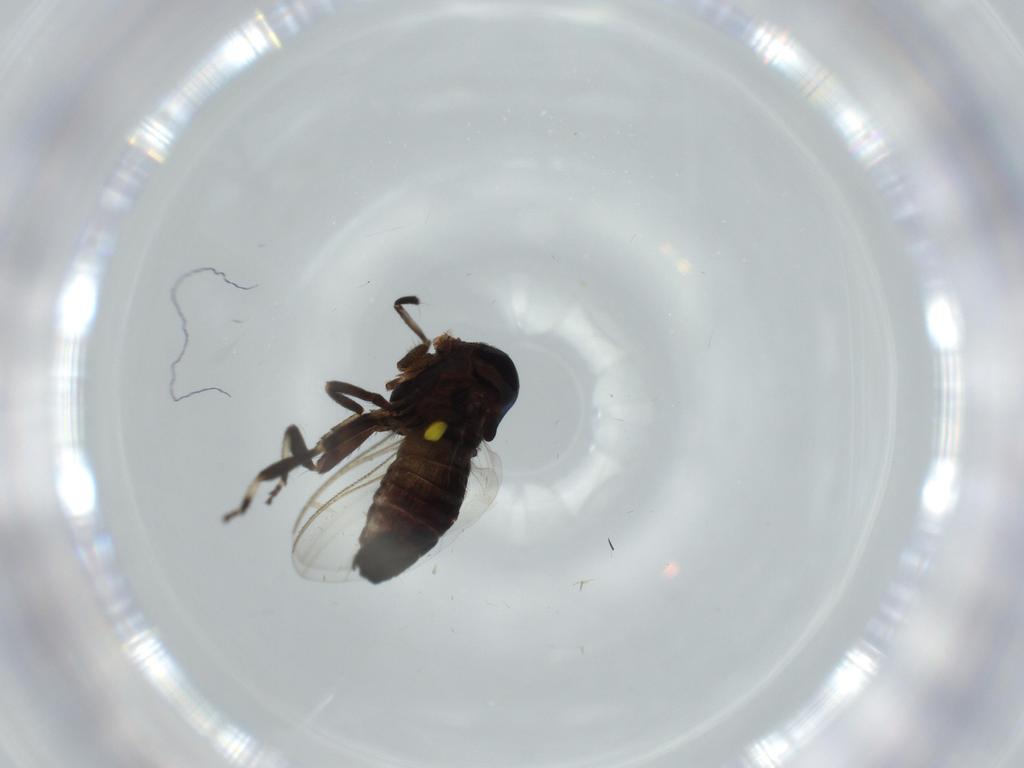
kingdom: Animalia
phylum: Arthropoda
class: Insecta
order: Diptera
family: Simuliidae
